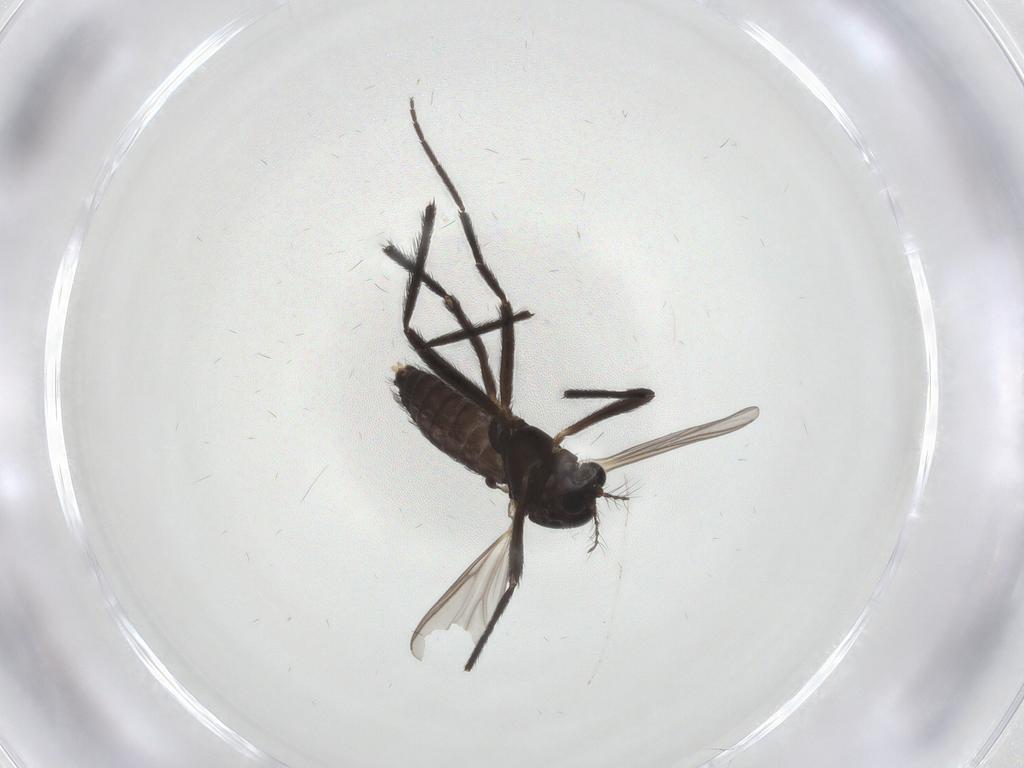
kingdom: Animalia
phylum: Arthropoda
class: Insecta
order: Diptera
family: Chironomidae
